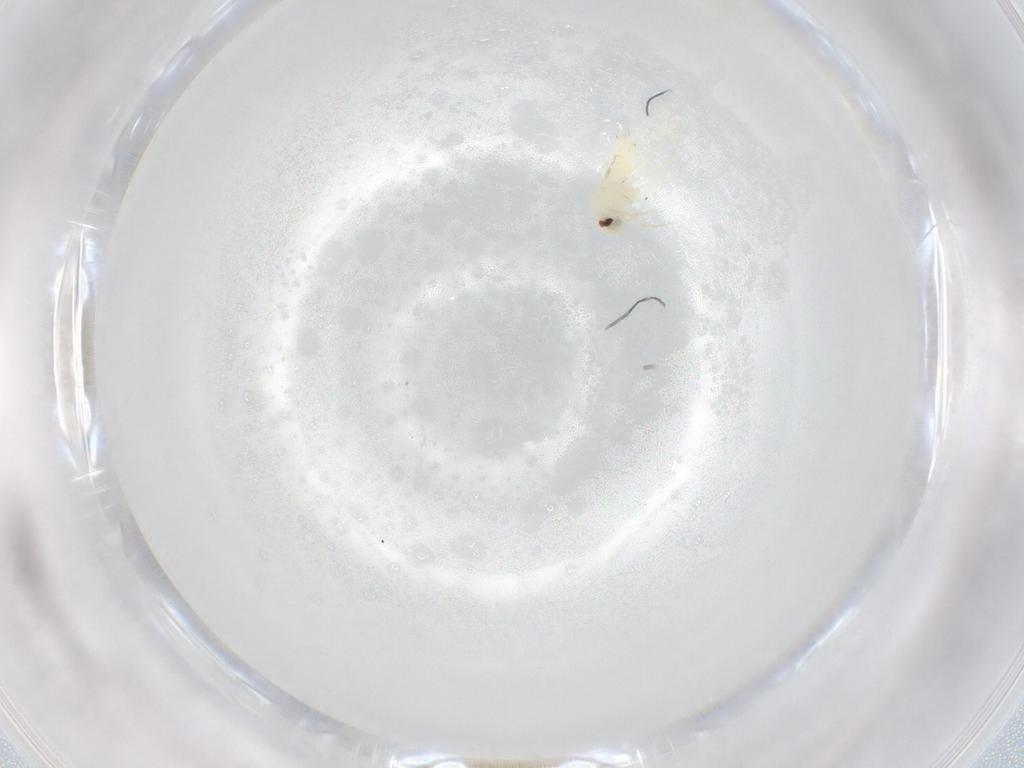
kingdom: Animalia
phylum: Arthropoda
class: Insecta
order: Hemiptera
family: Aleyrodidae
